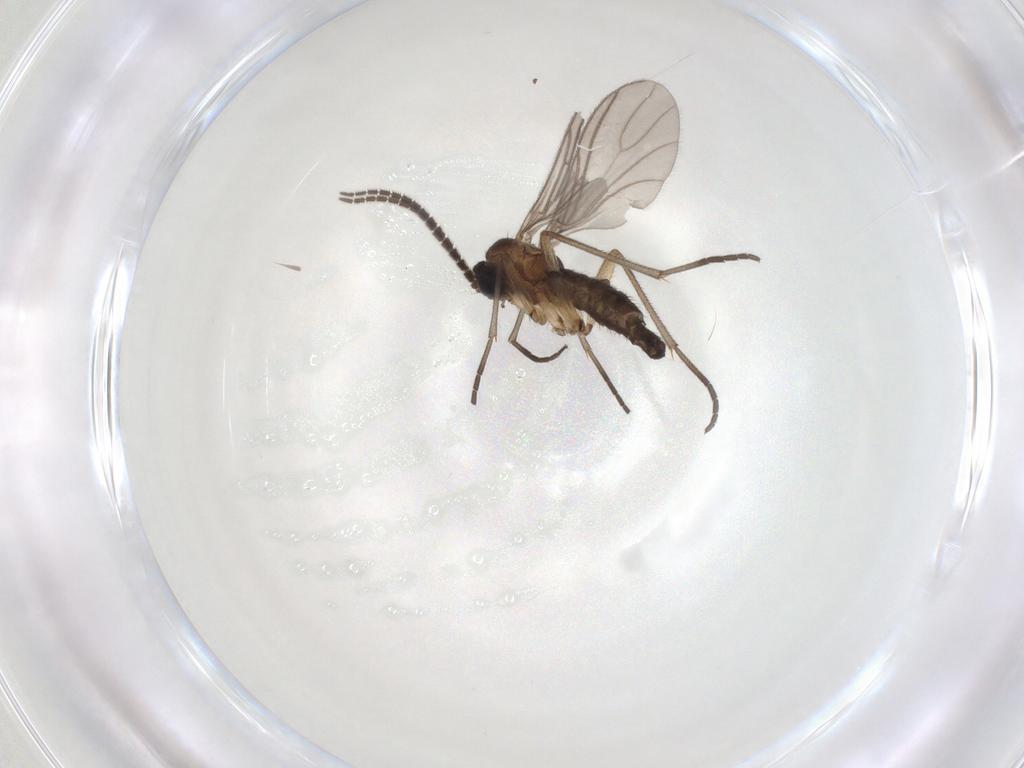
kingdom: Animalia
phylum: Arthropoda
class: Insecta
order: Diptera
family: Sciaridae
